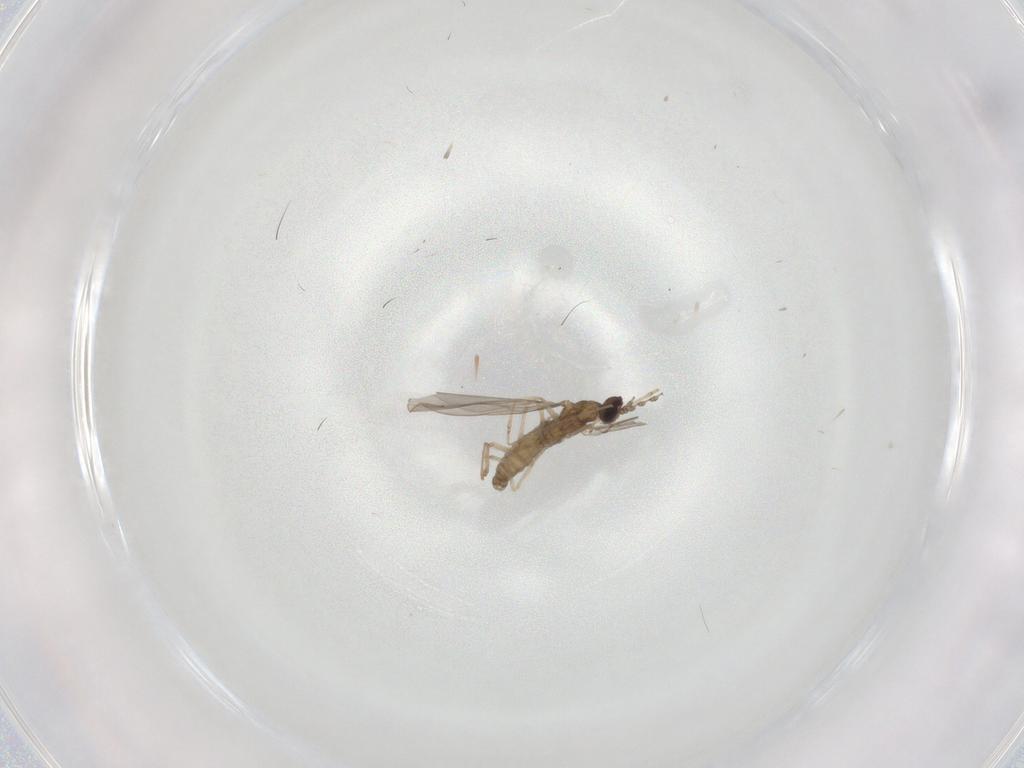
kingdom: Animalia
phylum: Arthropoda
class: Insecta
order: Diptera
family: Cecidomyiidae
